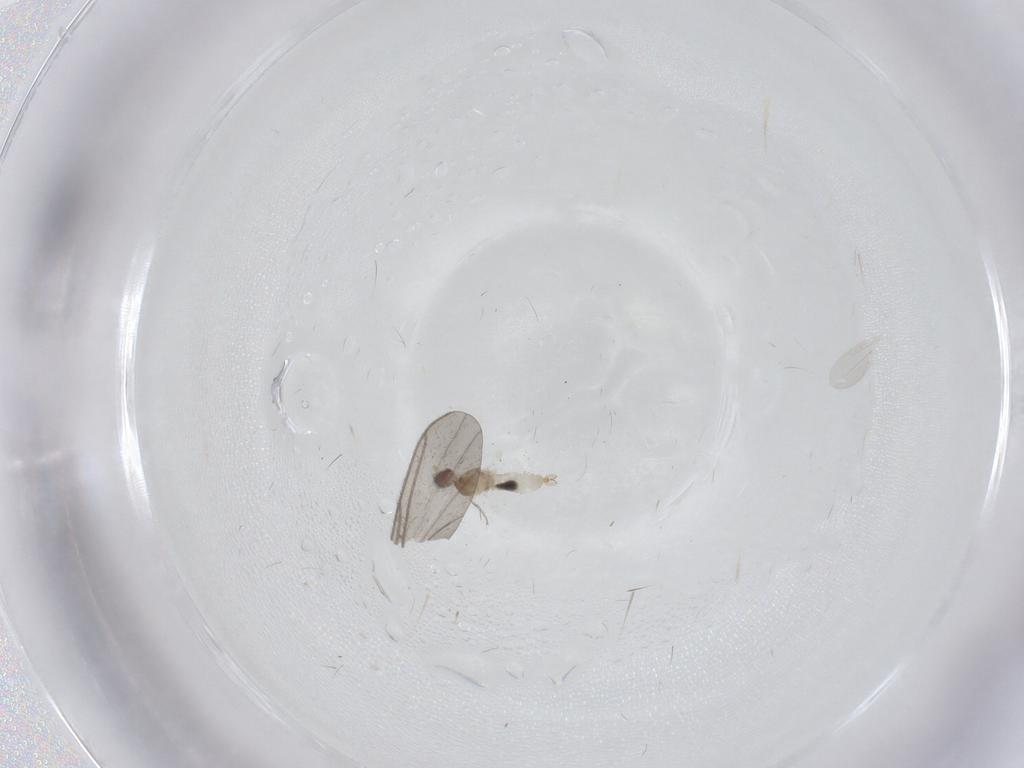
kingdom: Animalia
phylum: Arthropoda
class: Insecta
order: Diptera
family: Cecidomyiidae
